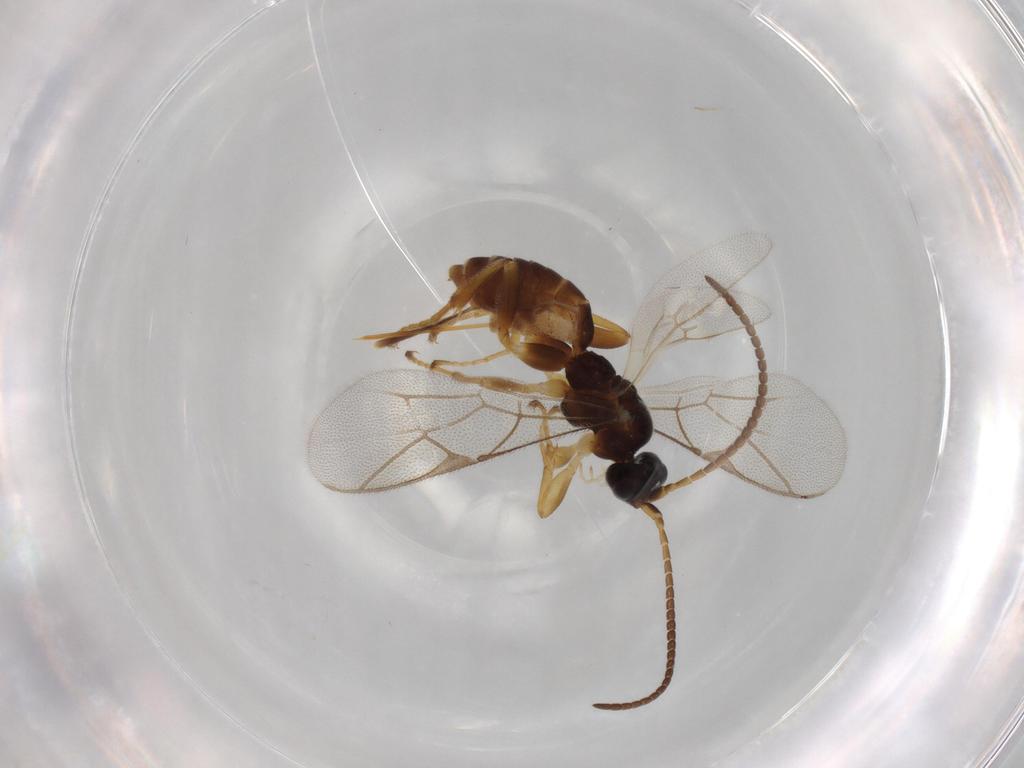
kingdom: Animalia
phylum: Arthropoda
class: Insecta
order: Hymenoptera
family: Ichneumonidae
